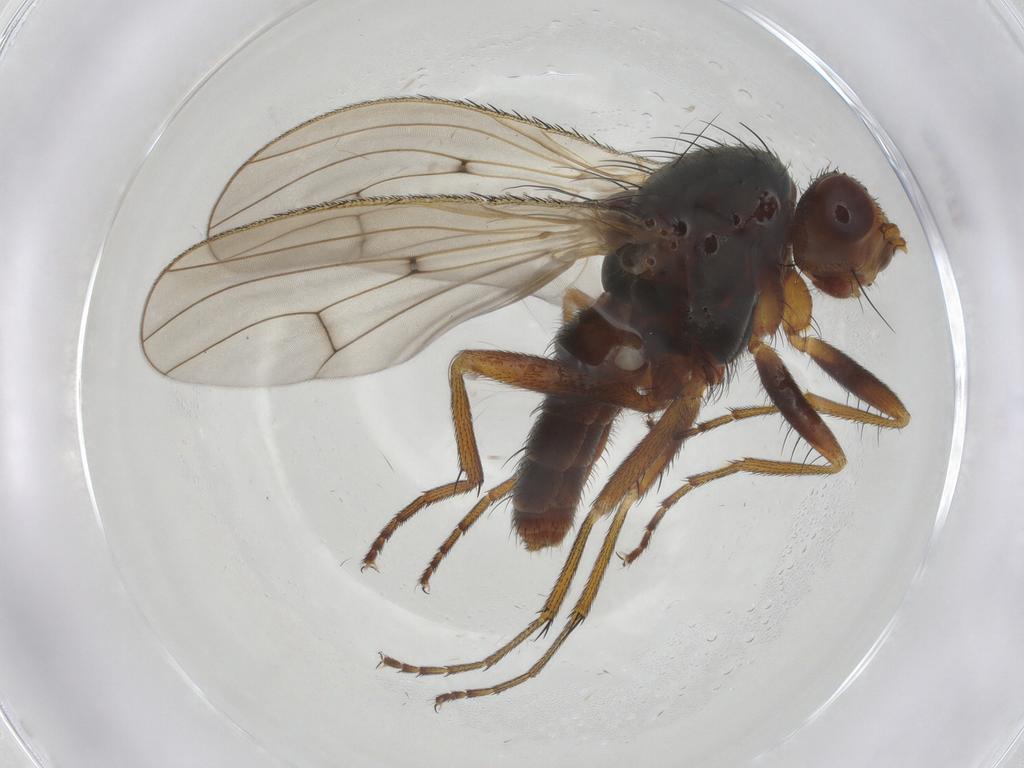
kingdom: Animalia
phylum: Arthropoda
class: Insecta
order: Diptera
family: Heleomyzidae
